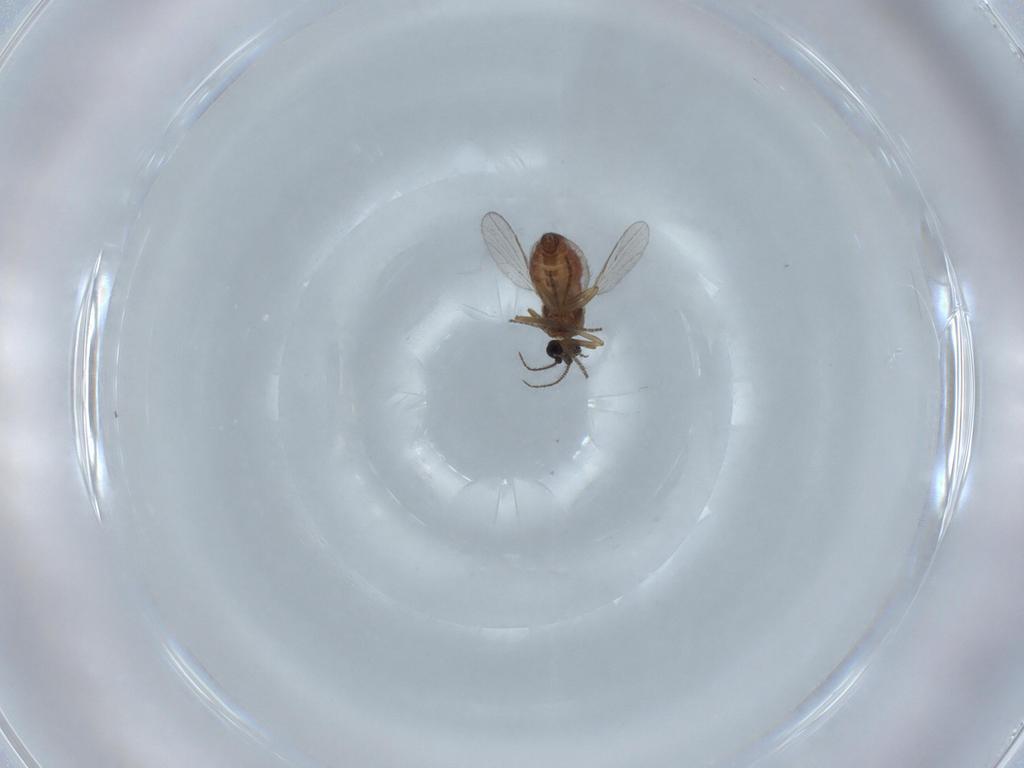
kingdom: Animalia
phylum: Arthropoda
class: Insecta
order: Diptera
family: Ceratopogonidae
